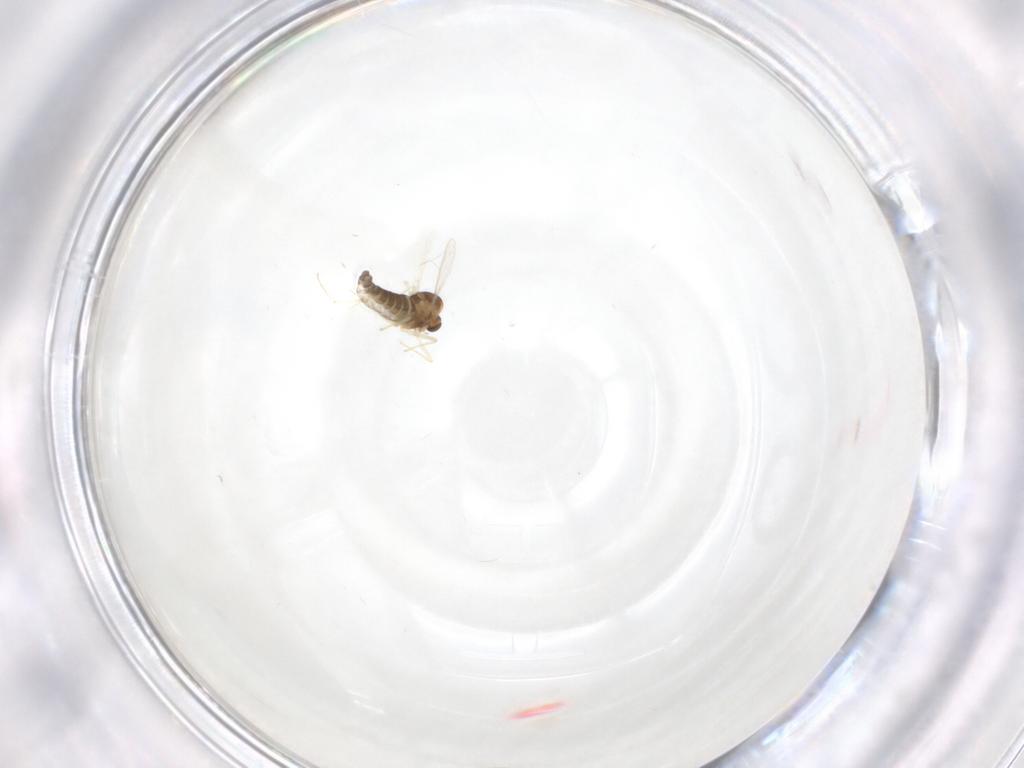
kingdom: Animalia
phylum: Arthropoda
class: Insecta
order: Diptera
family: Chironomidae
